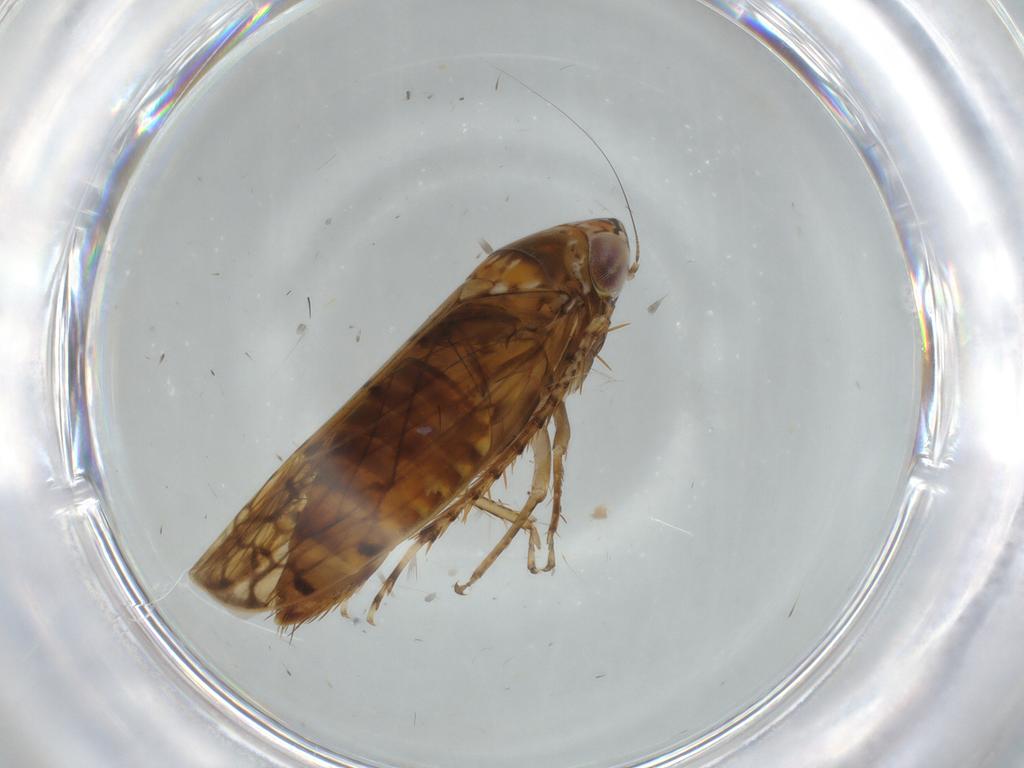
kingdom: Animalia
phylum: Arthropoda
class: Insecta
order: Hemiptera
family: Cicadellidae
